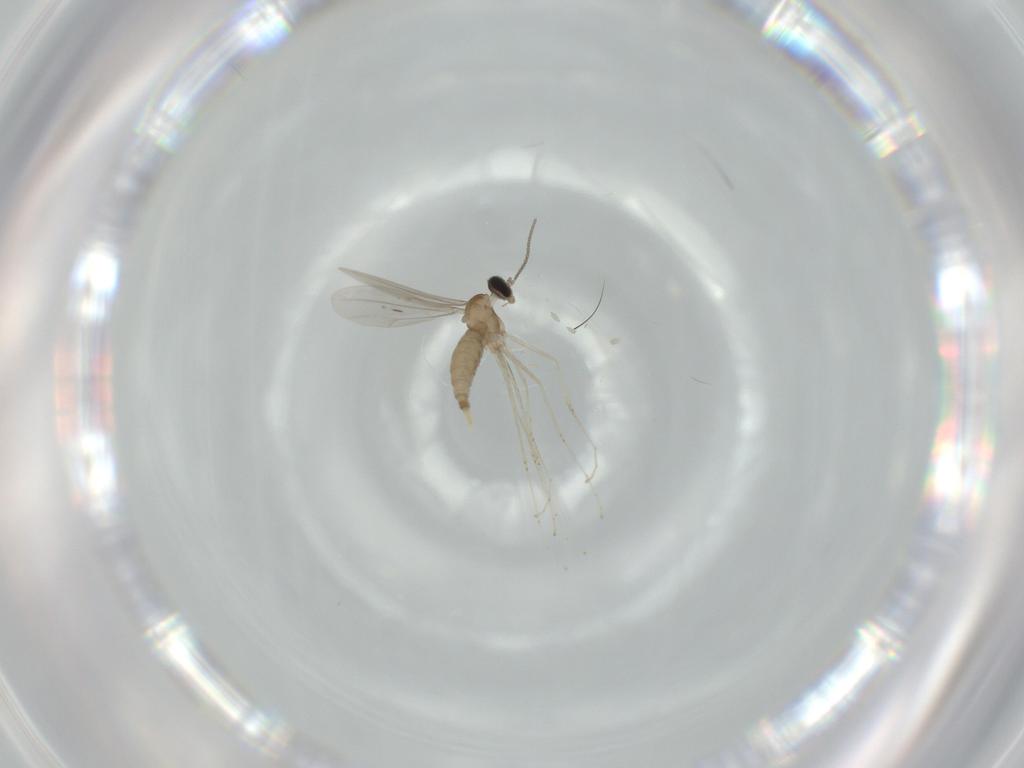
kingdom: Animalia
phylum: Arthropoda
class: Insecta
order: Diptera
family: Cecidomyiidae
